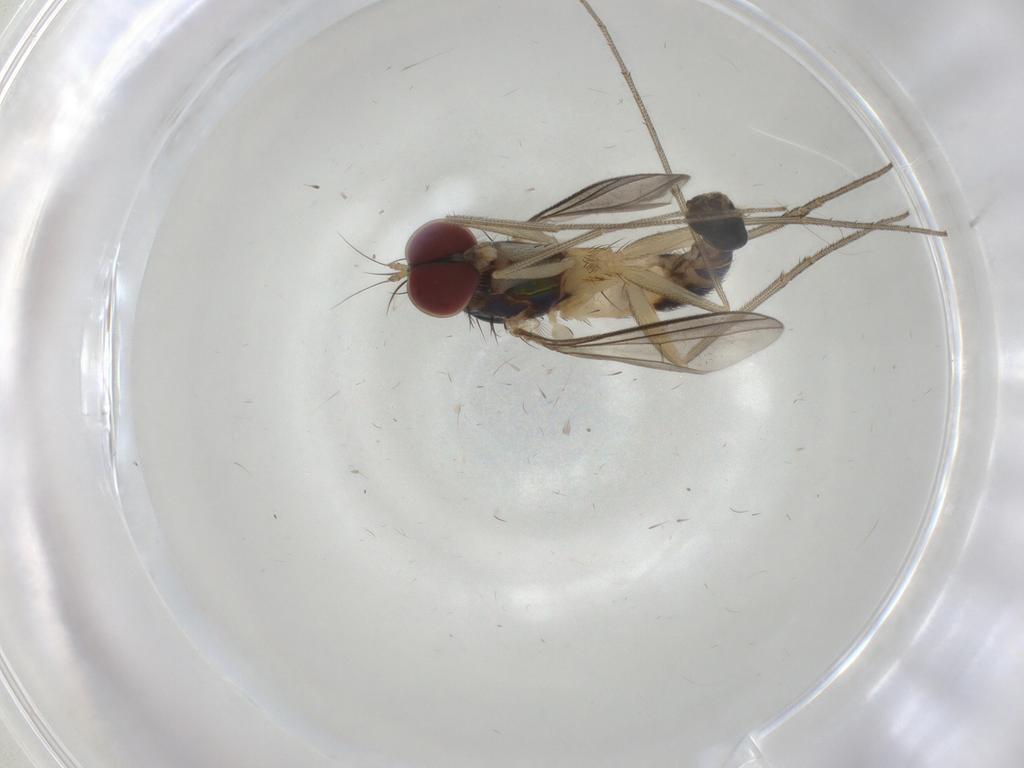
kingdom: Animalia
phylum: Arthropoda
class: Insecta
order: Diptera
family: Dolichopodidae
